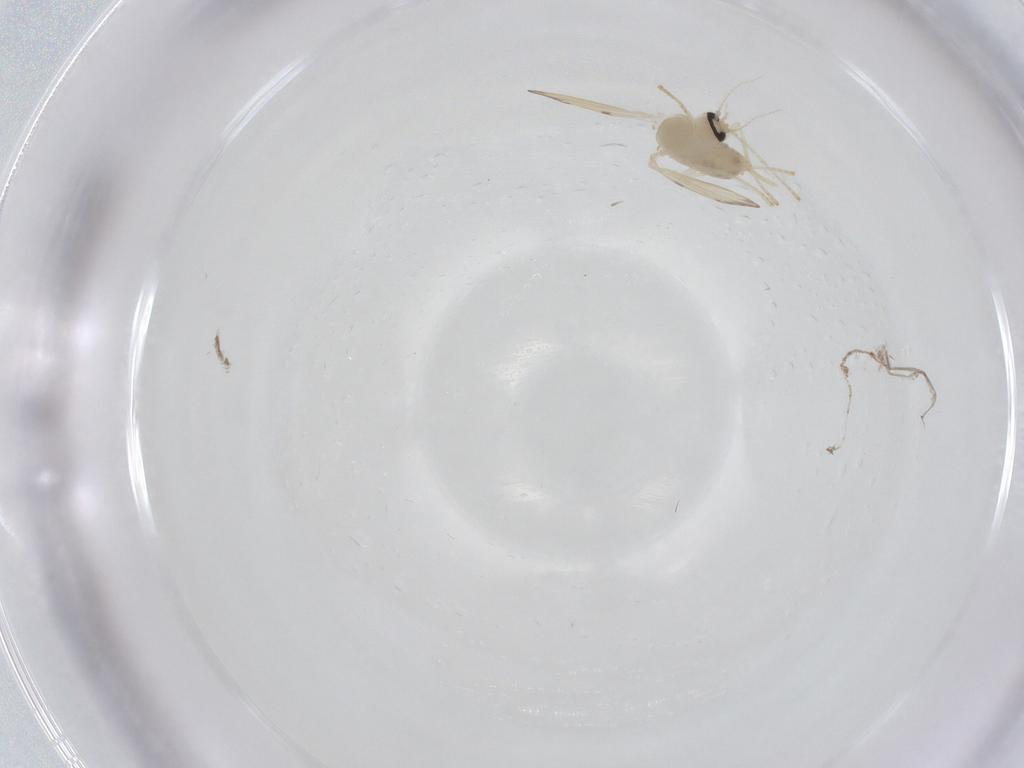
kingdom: Animalia
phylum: Arthropoda
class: Insecta
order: Diptera
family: Psychodidae
